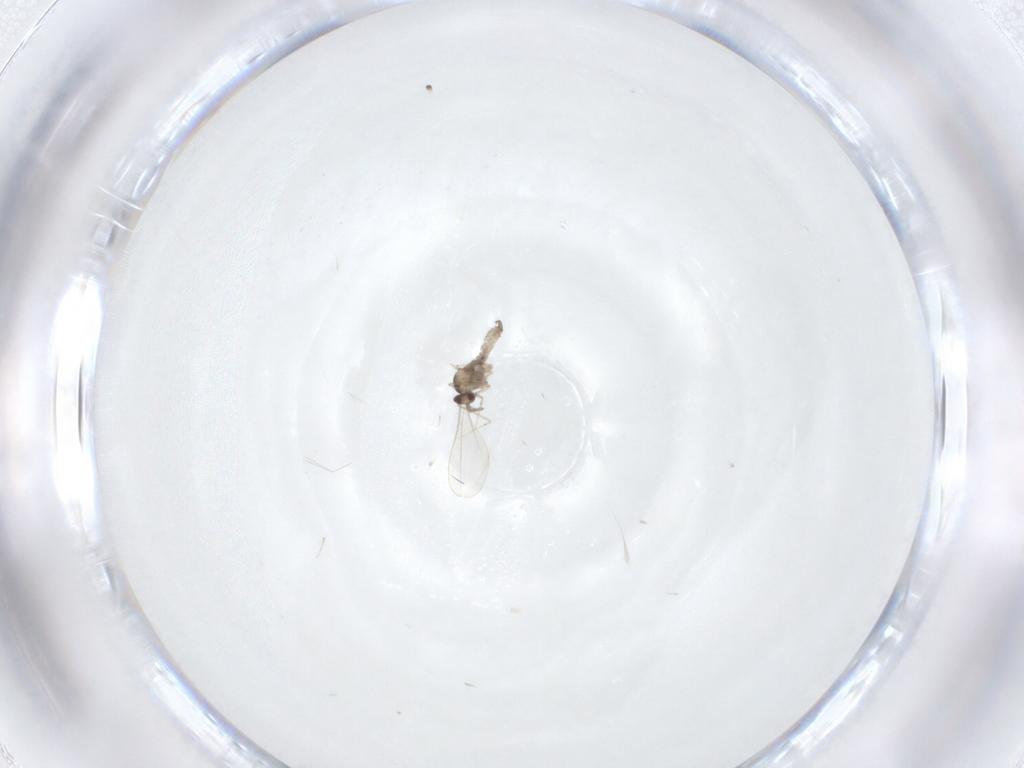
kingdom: Animalia
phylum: Arthropoda
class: Insecta
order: Diptera
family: Cecidomyiidae
